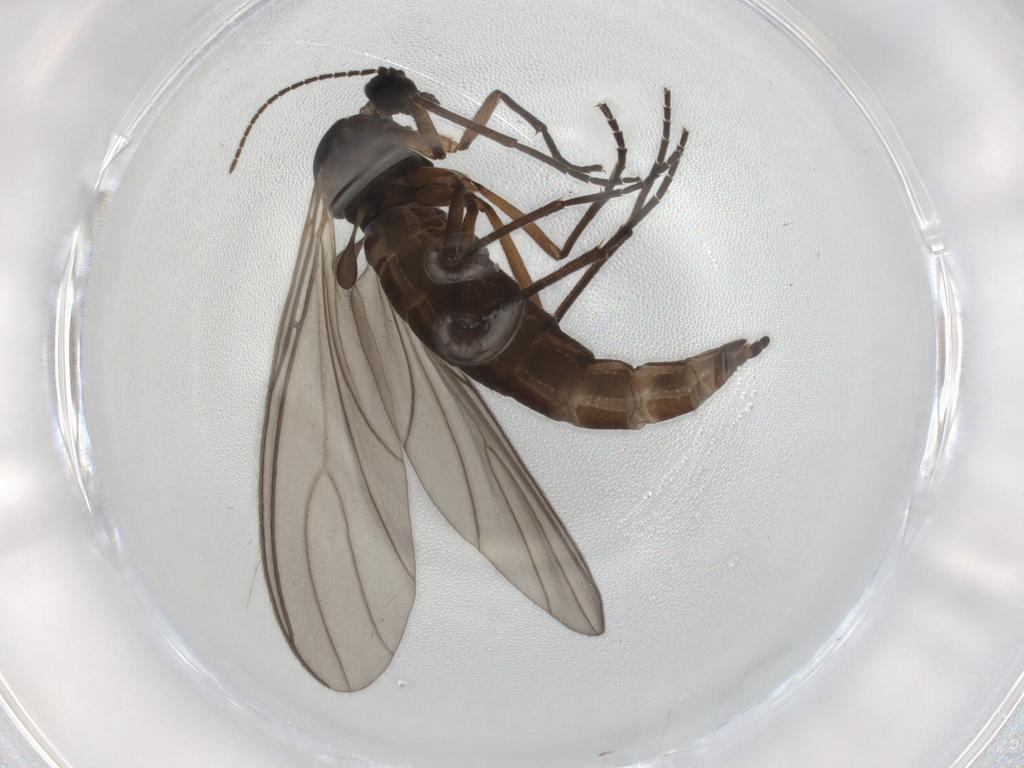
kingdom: Animalia
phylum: Arthropoda
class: Insecta
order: Diptera
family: Sciaridae
